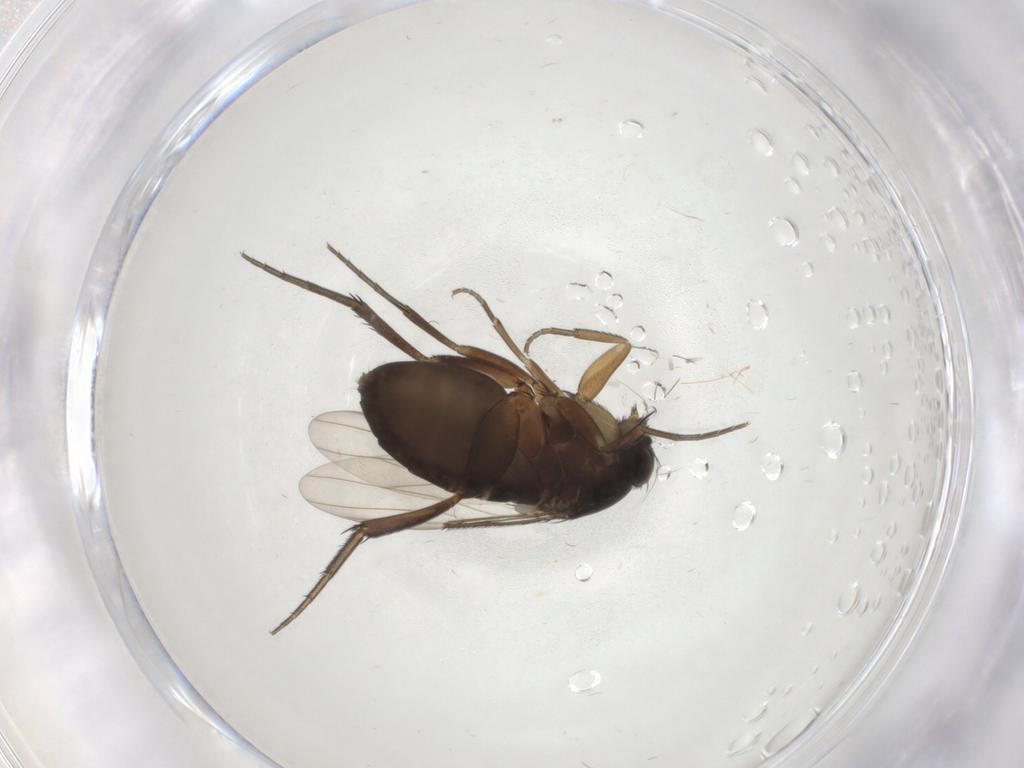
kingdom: Animalia
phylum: Arthropoda
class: Insecta
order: Diptera
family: Phoridae
